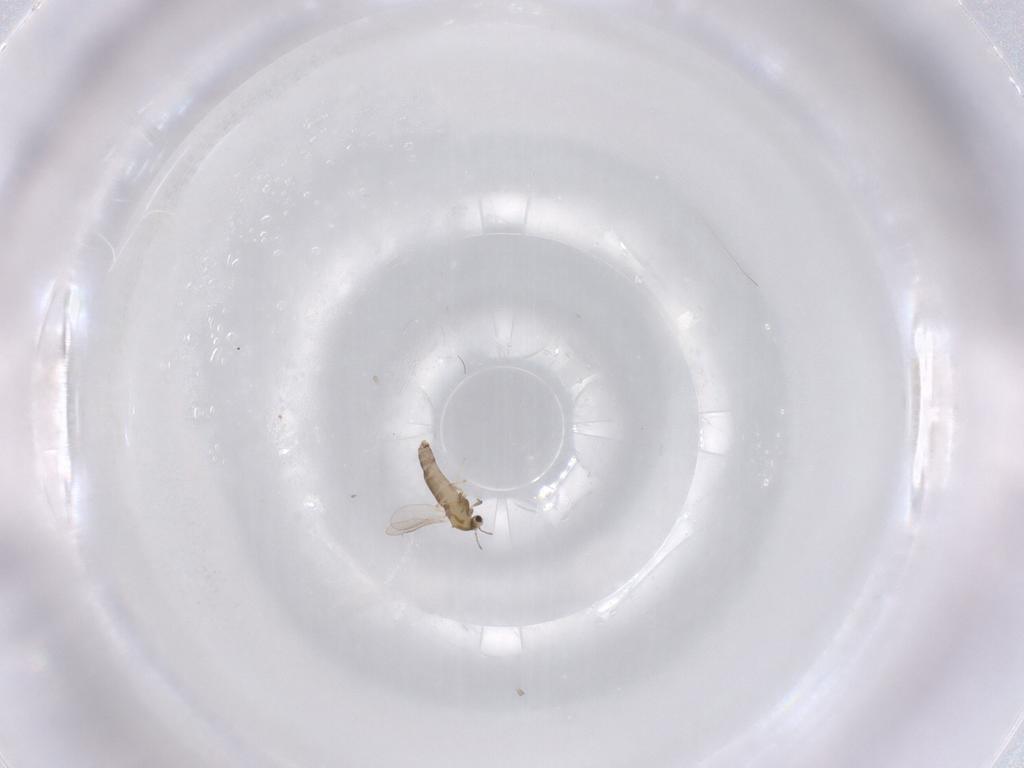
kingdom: Animalia
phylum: Arthropoda
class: Insecta
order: Diptera
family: Chironomidae
